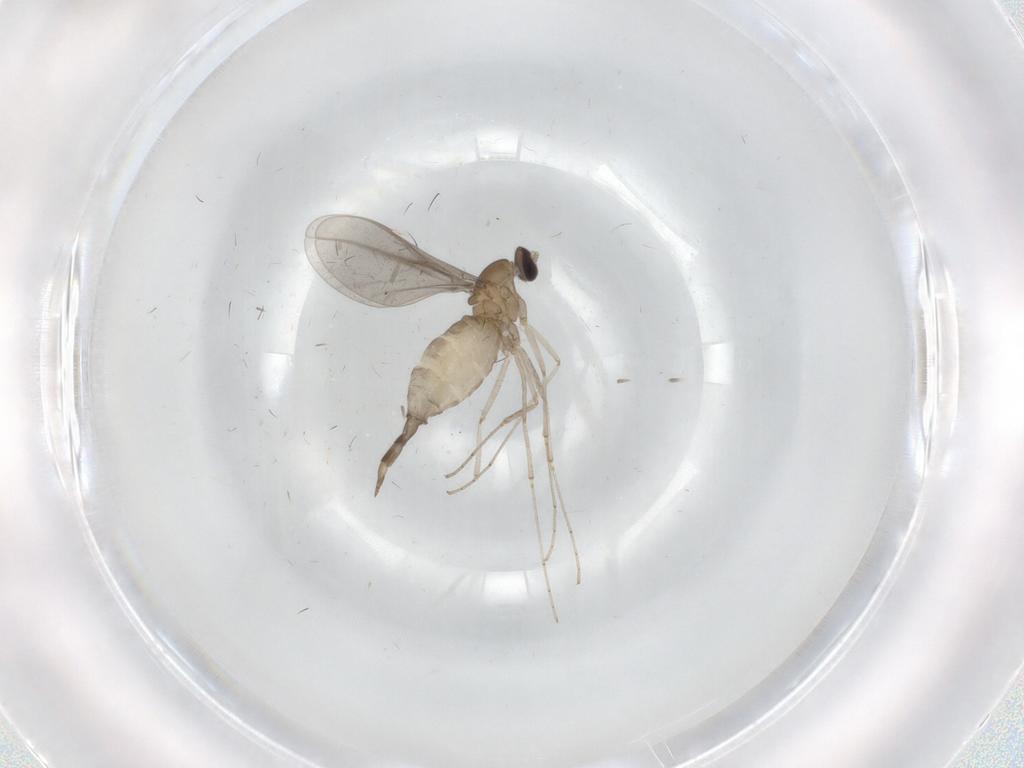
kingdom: Animalia
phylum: Arthropoda
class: Insecta
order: Diptera
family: Cecidomyiidae
